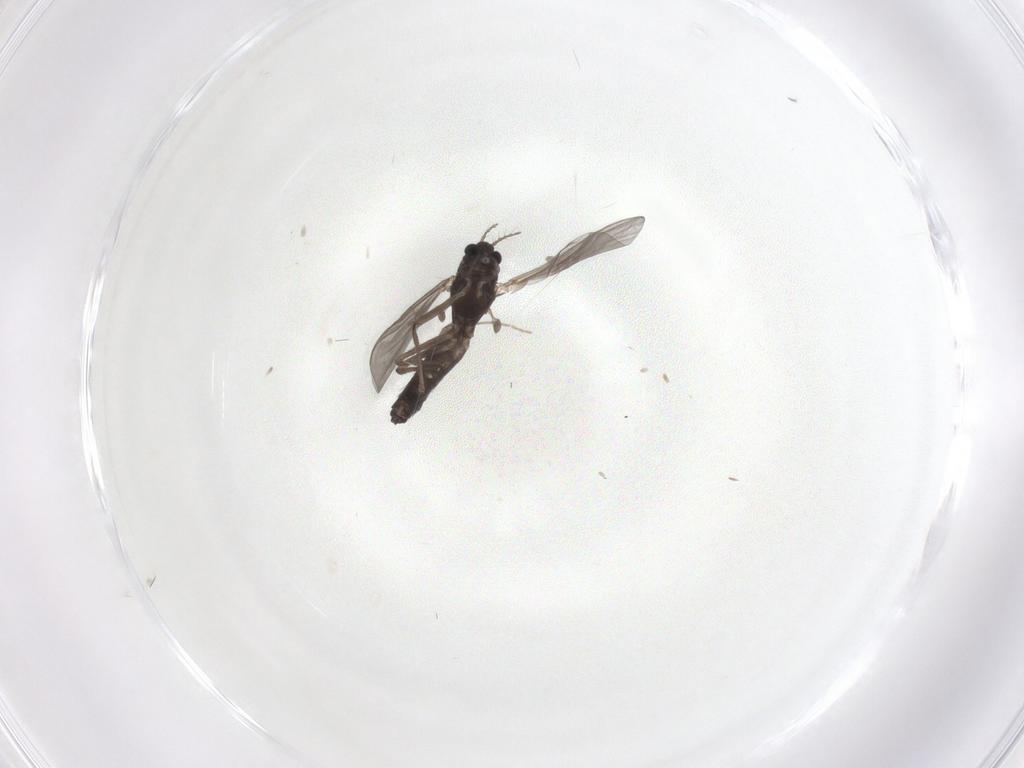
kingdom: Animalia
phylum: Arthropoda
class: Insecta
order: Diptera
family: Chironomidae
